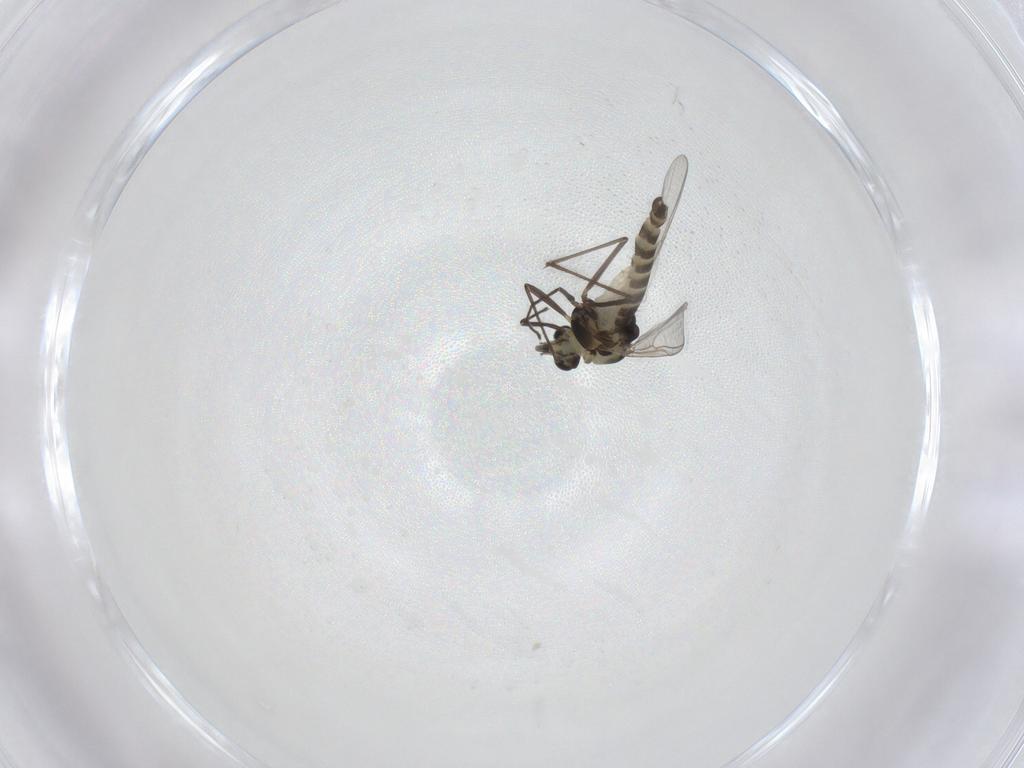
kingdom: Animalia
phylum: Arthropoda
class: Insecta
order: Diptera
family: Chironomidae
